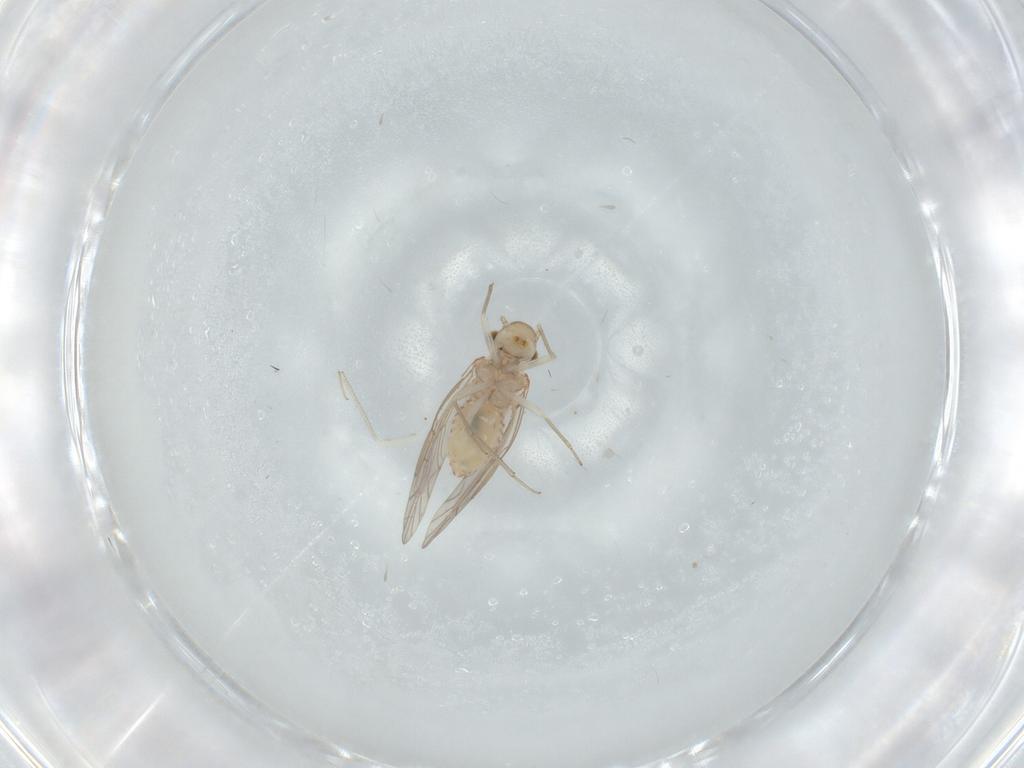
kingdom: Animalia
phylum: Arthropoda
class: Insecta
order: Psocodea
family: Lachesillidae
